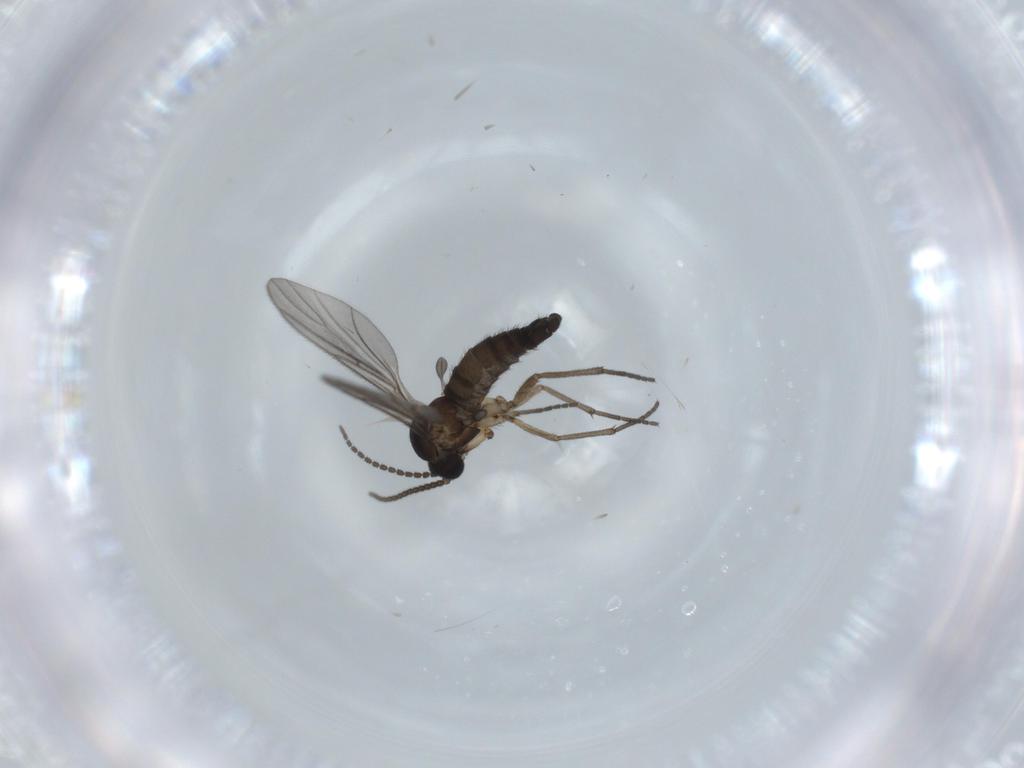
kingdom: Animalia
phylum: Arthropoda
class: Insecta
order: Diptera
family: Sciaridae
